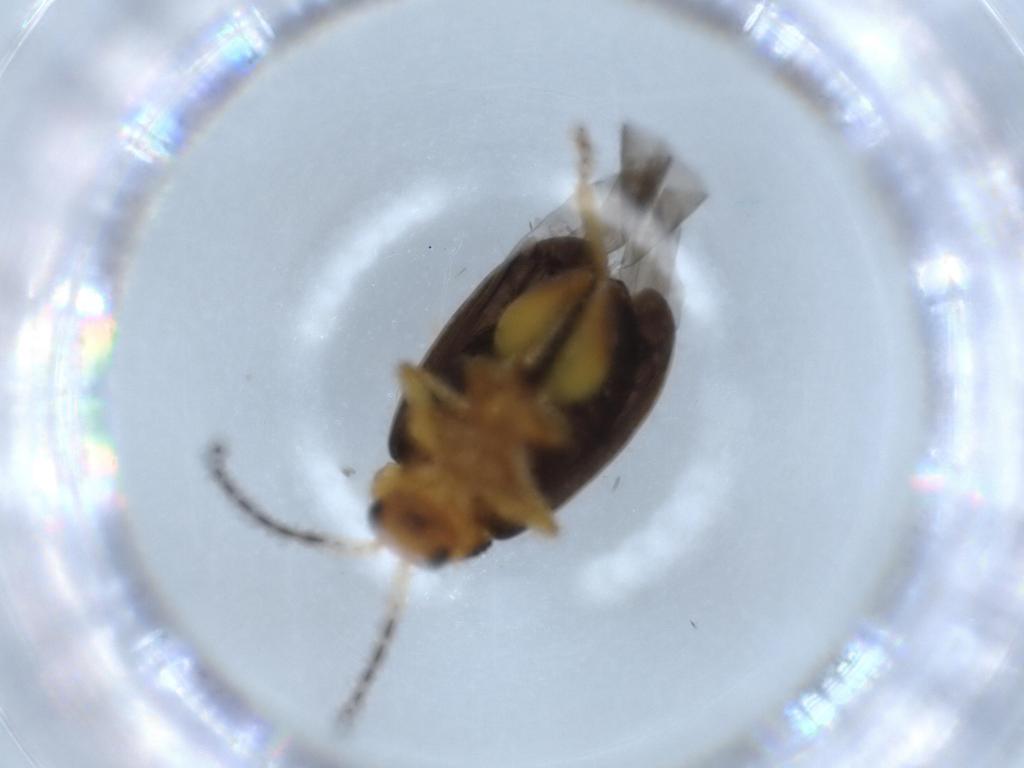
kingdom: Animalia
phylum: Arthropoda
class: Insecta
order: Coleoptera
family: Chrysomelidae
